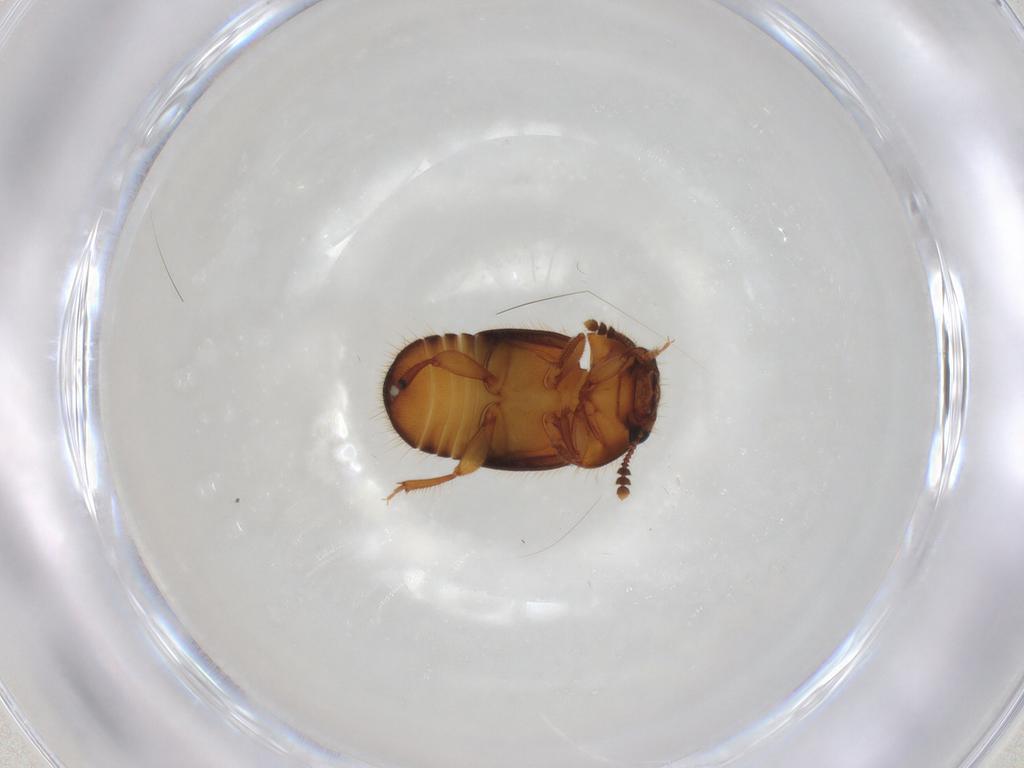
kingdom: Animalia
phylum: Arthropoda
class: Insecta
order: Coleoptera
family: Nitidulidae
